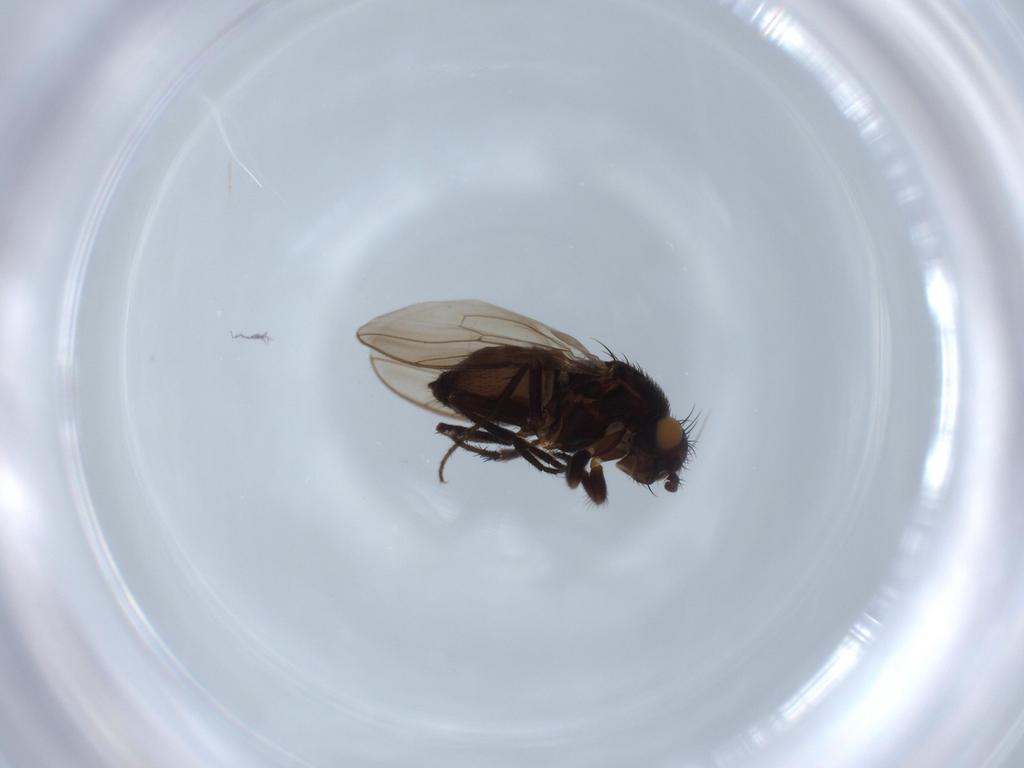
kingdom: Animalia
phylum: Arthropoda
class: Insecta
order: Diptera
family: Sphaeroceridae
